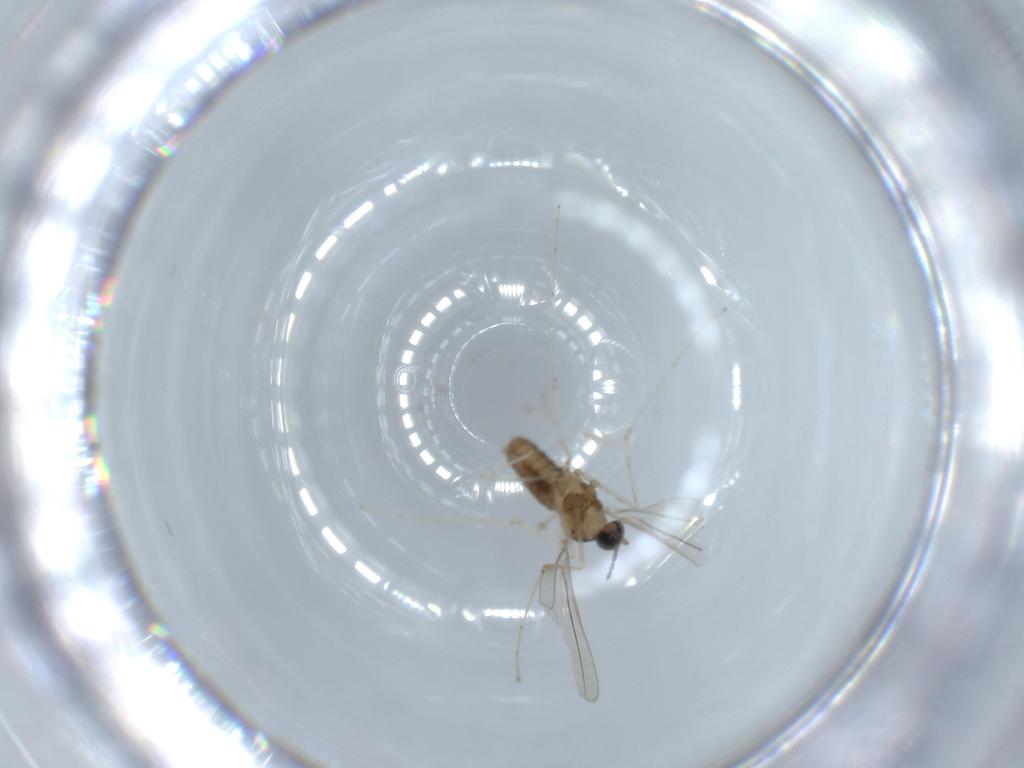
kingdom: Animalia
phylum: Arthropoda
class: Insecta
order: Diptera
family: Cecidomyiidae
